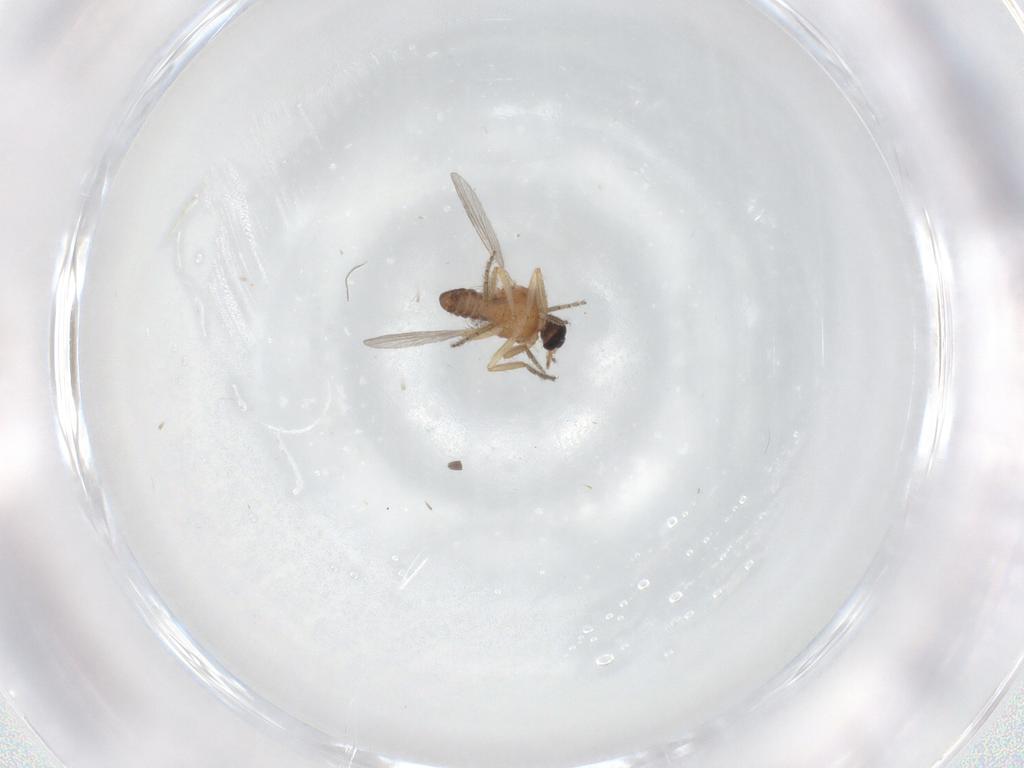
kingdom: Animalia
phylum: Arthropoda
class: Insecta
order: Diptera
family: Ceratopogonidae
